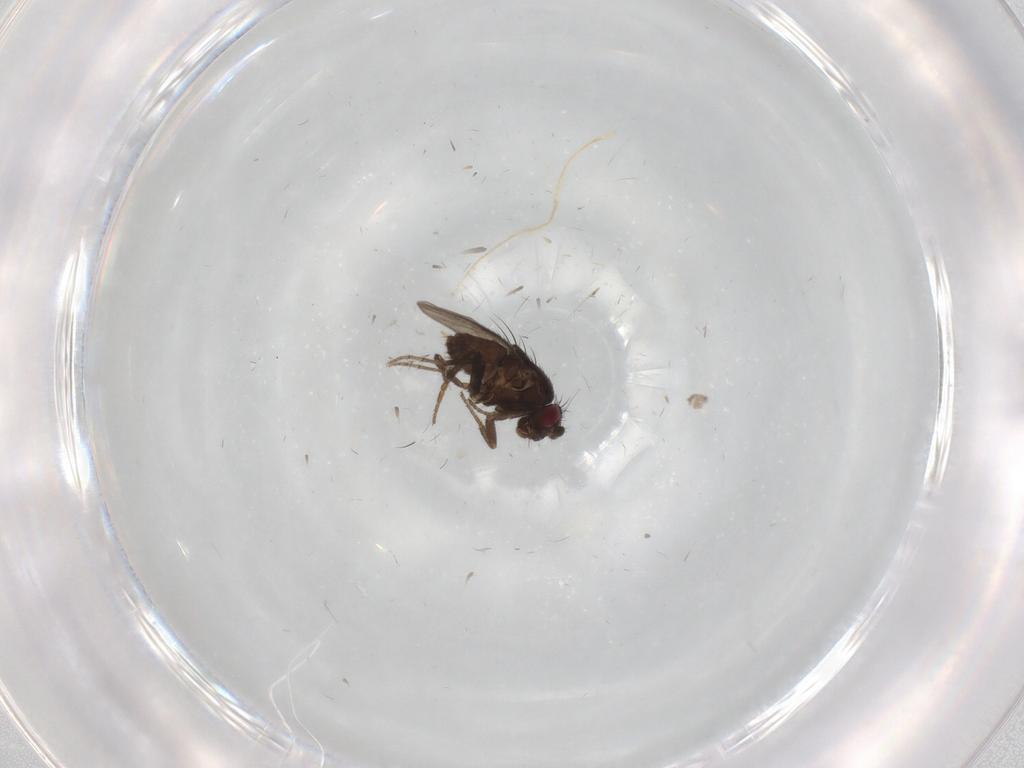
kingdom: Animalia
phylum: Arthropoda
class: Insecta
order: Diptera
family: Sphaeroceridae
